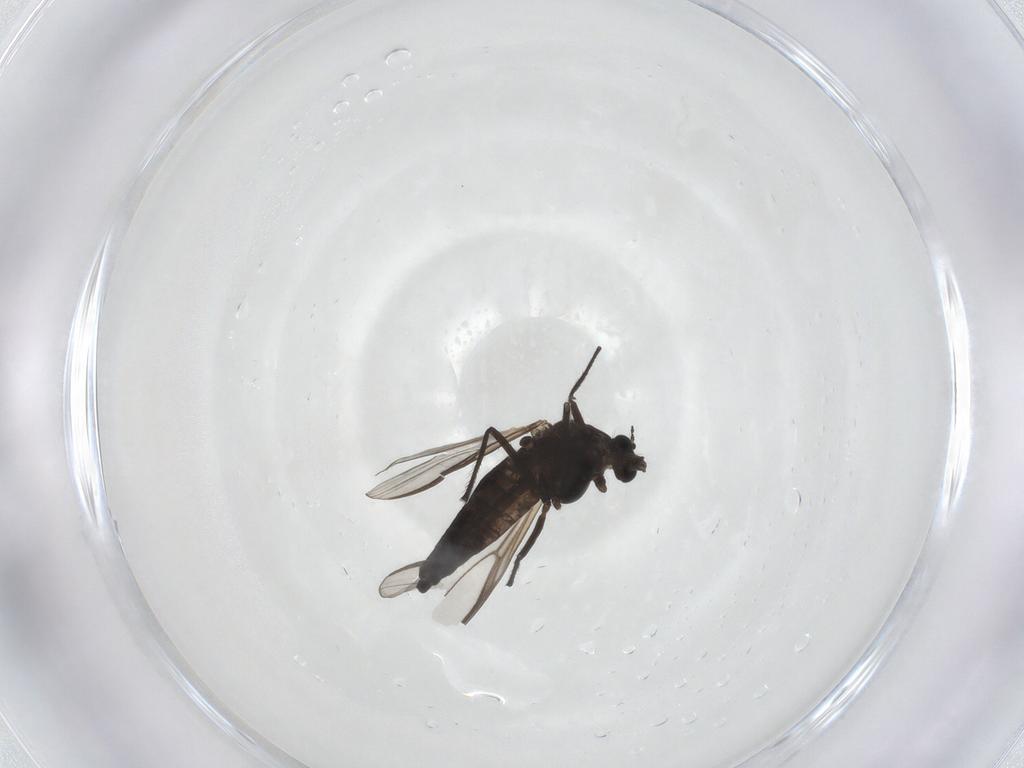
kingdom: Animalia
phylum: Arthropoda
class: Insecta
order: Diptera
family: Chironomidae
